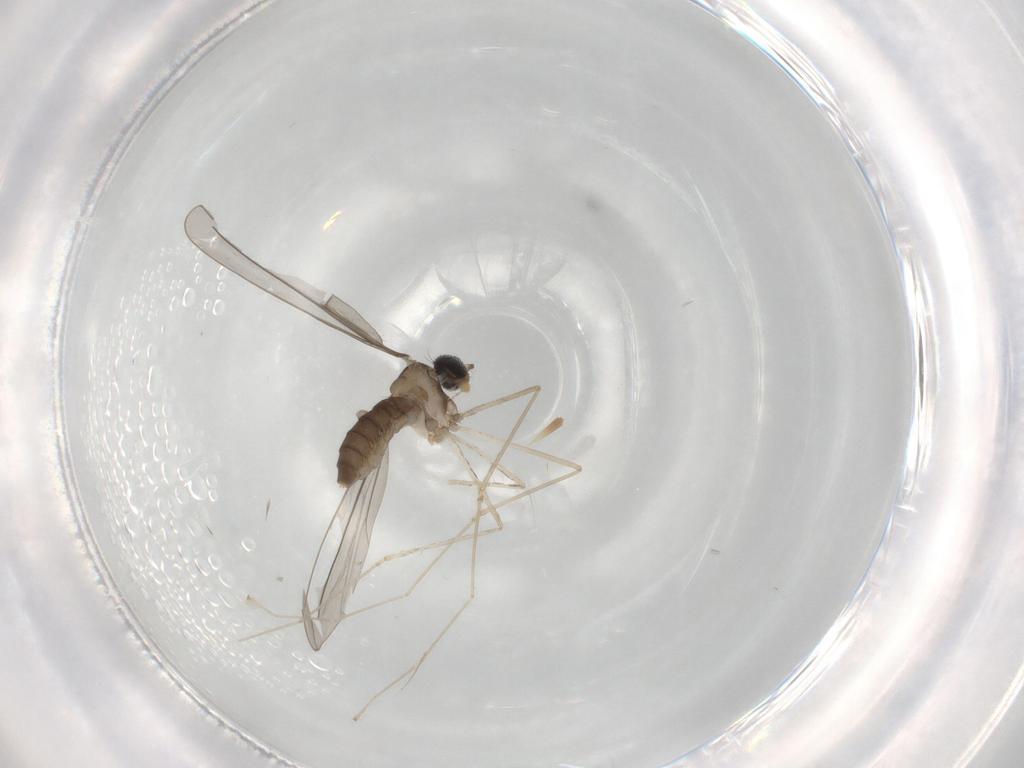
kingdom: Animalia
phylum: Arthropoda
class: Insecta
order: Diptera
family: Cecidomyiidae
